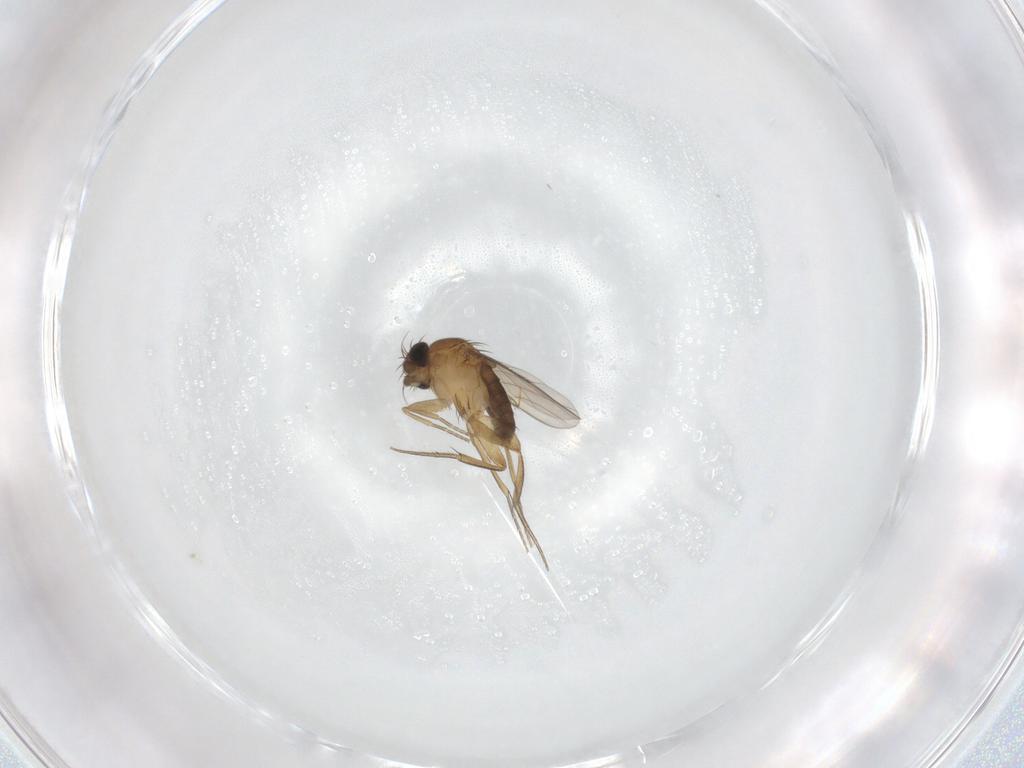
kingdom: Animalia
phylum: Arthropoda
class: Insecta
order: Diptera
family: Phoridae
